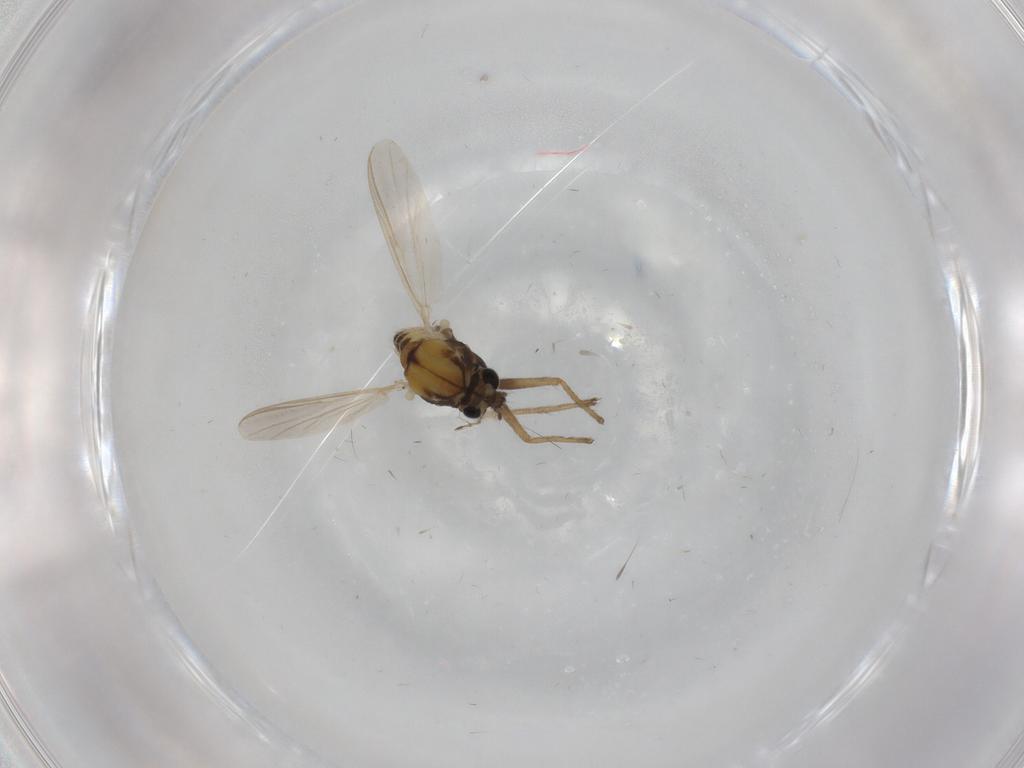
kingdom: Animalia
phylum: Arthropoda
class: Insecta
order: Diptera
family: Chironomidae
